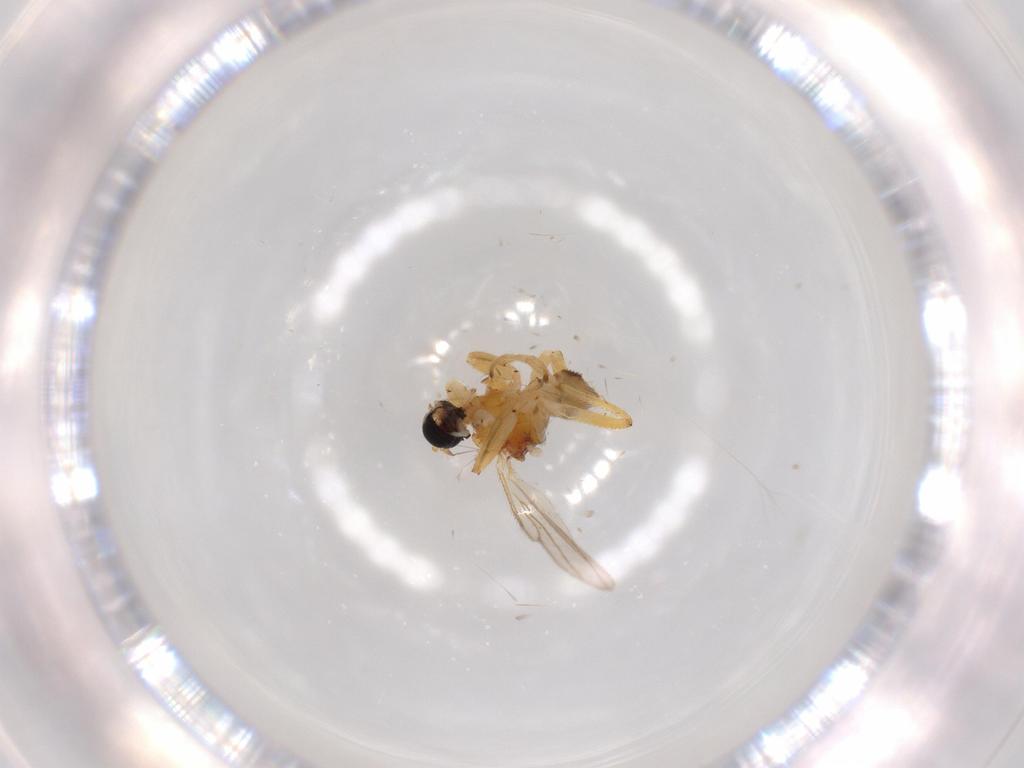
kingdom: Animalia
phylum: Arthropoda
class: Insecta
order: Diptera
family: Hybotidae
